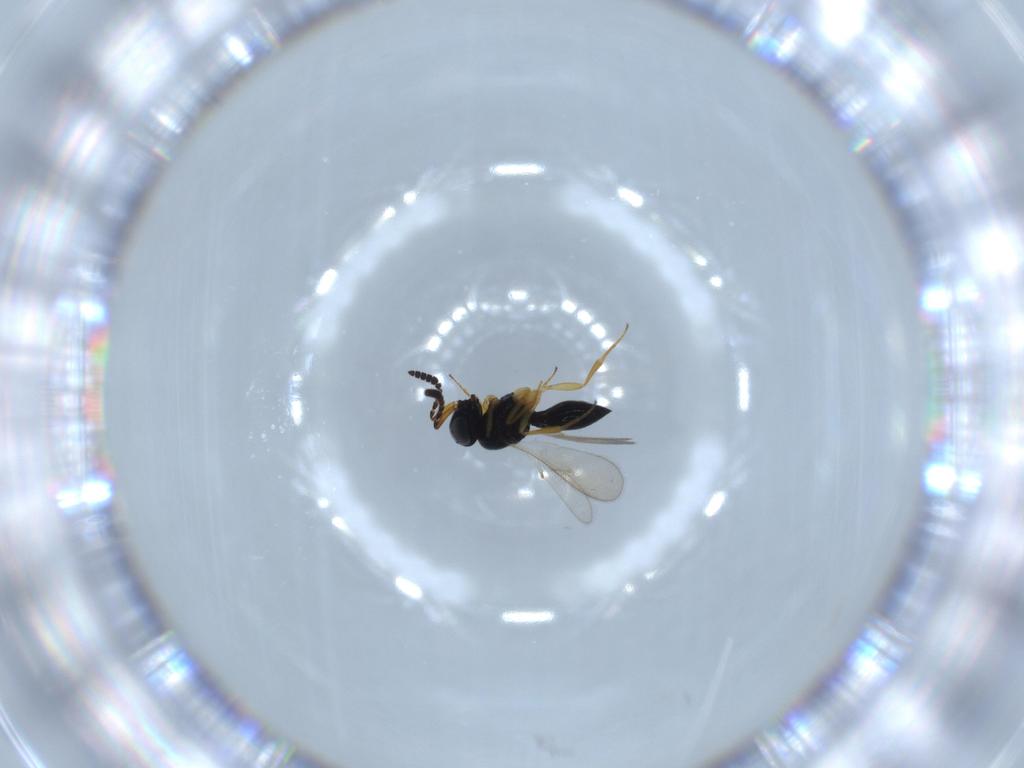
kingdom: Animalia
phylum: Arthropoda
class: Insecta
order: Hymenoptera
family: Scelionidae
